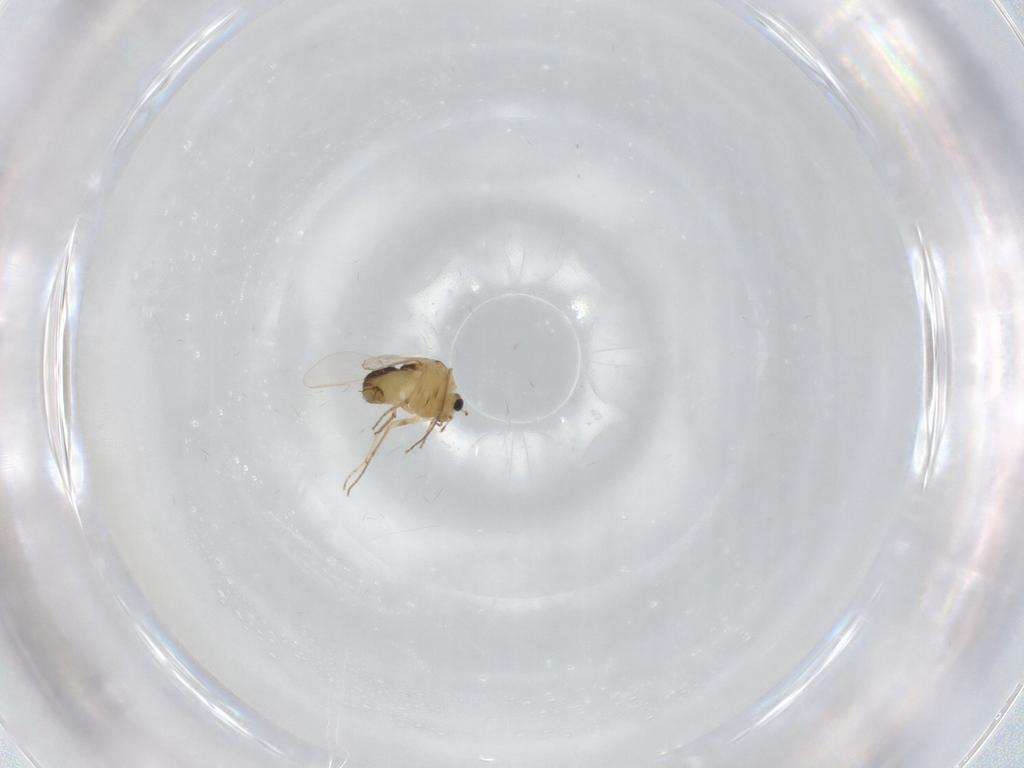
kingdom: Animalia
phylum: Arthropoda
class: Insecta
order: Diptera
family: Chironomidae
